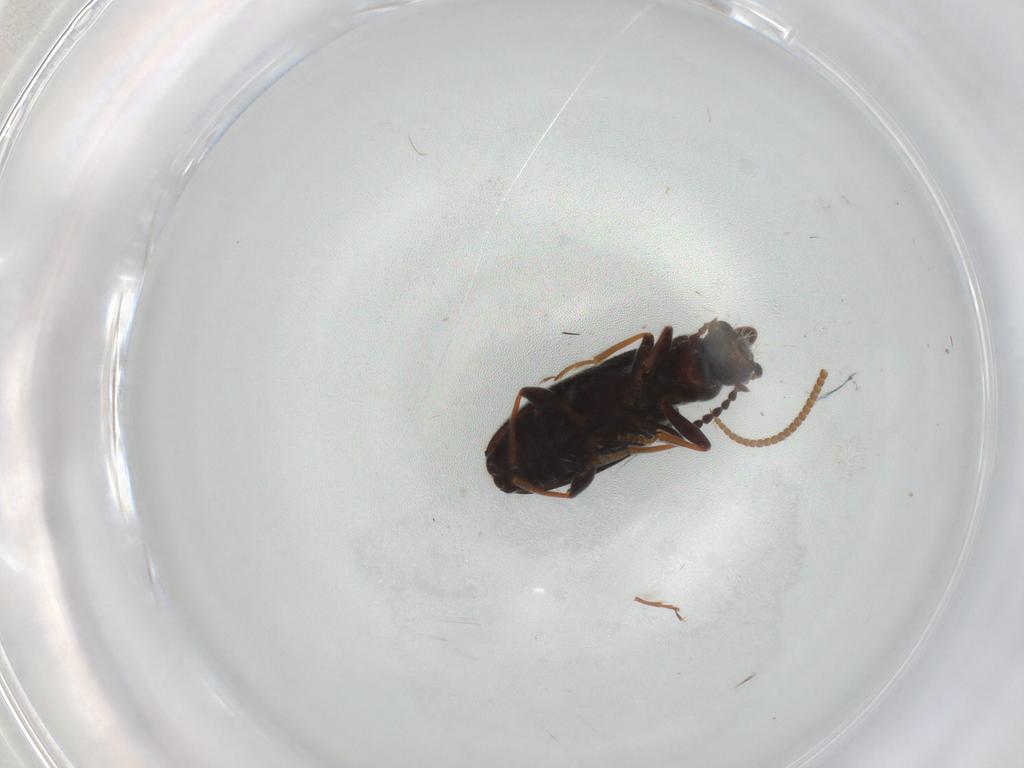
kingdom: Animalia
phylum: Arthropoda
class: Insecta
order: Coleoptera
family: Anthicidae
